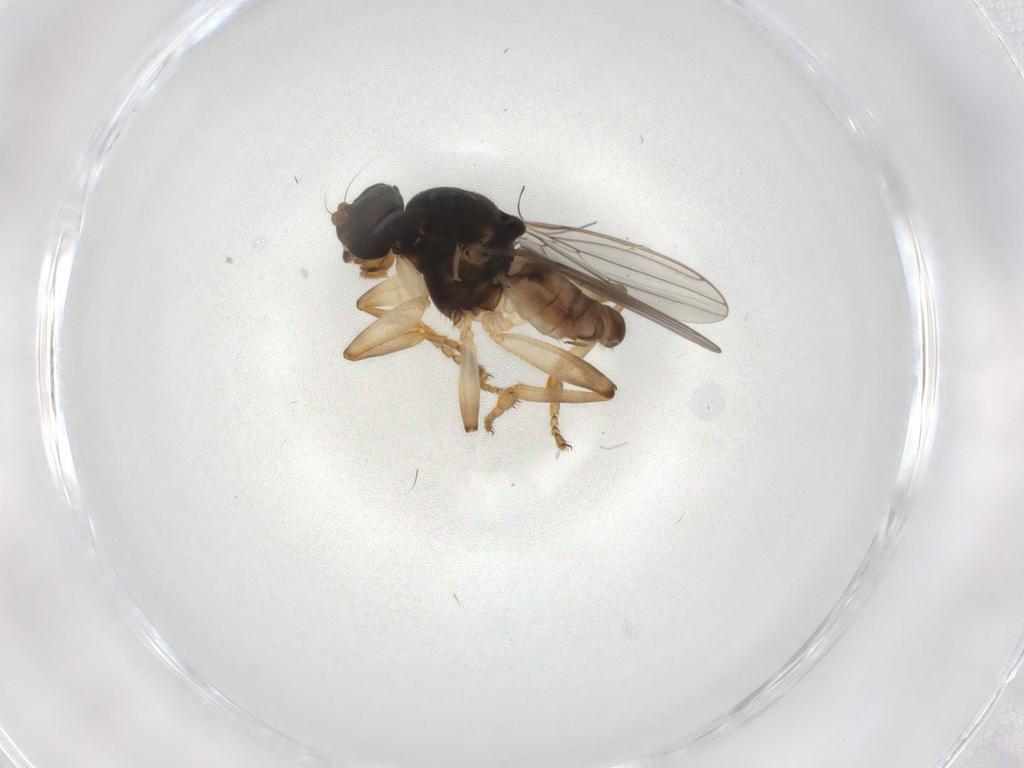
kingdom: Animalia
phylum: Arthropoda
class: Insecta
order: Diptera
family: Sphaeroceridae
